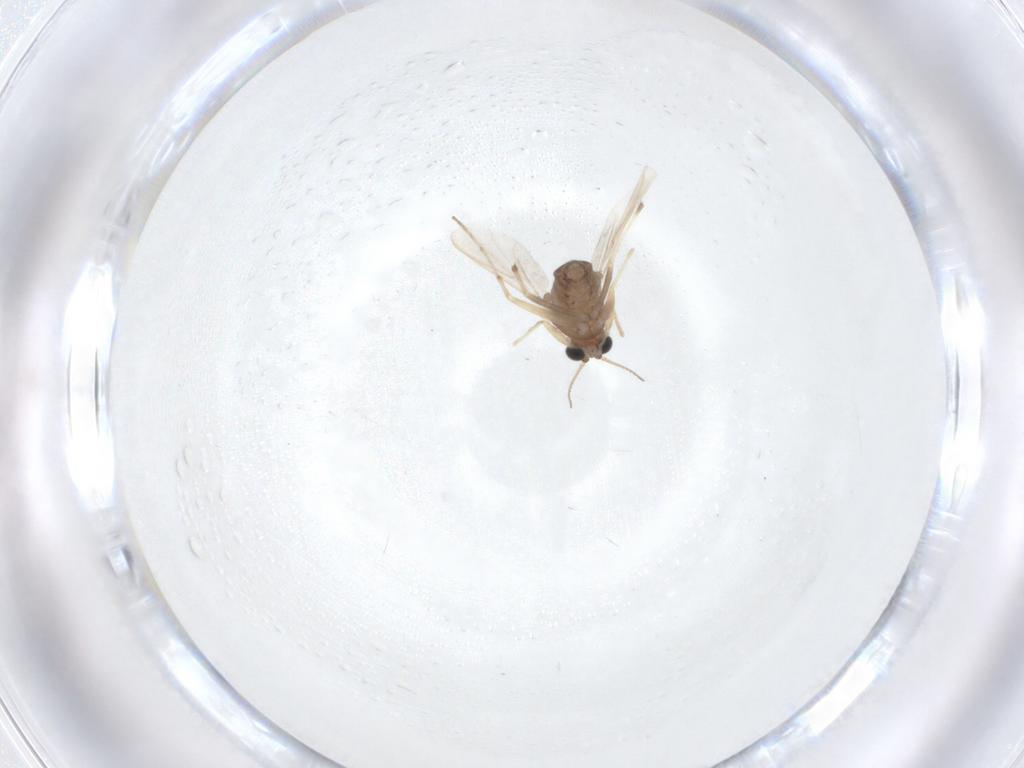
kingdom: Animalia
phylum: Arthropoda
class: Insecta
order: Diptera
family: Chironomidae
